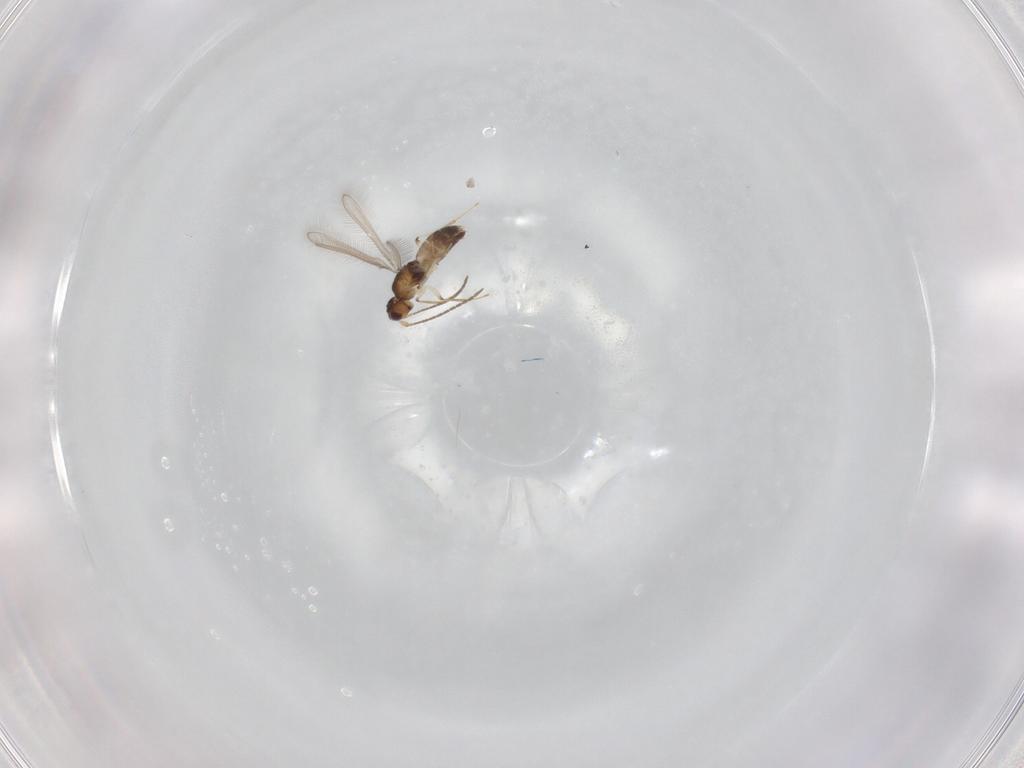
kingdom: Animalia
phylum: Arthropoda
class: Insecta
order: Hymenoptera
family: Mymaridae
